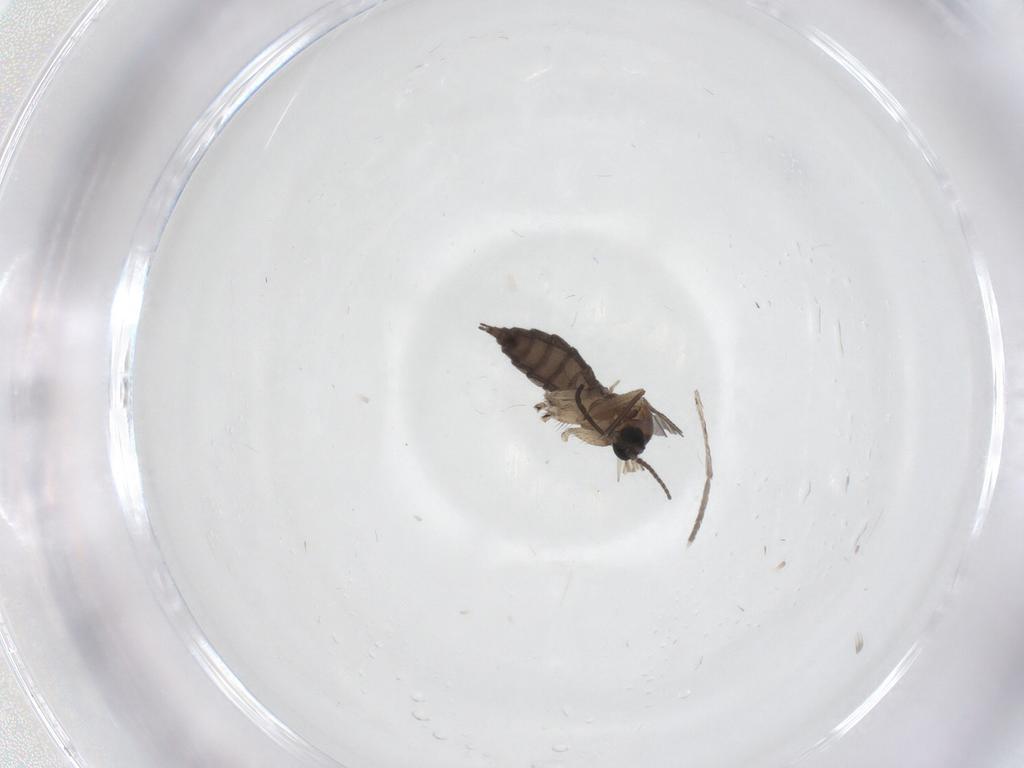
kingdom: Animalia
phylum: Arthropoda
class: Insecta
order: Diptera
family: Sciaridae
